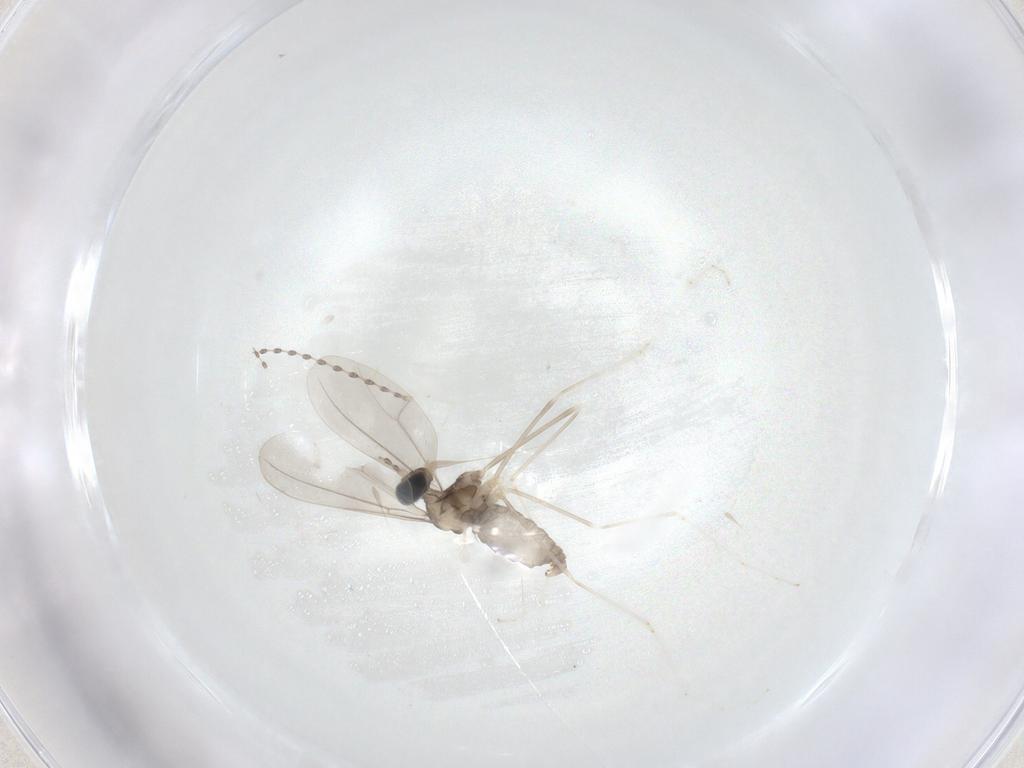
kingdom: Animalia
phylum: Arthropoda
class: Insecta
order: Diptera
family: Cecidomyiidae
